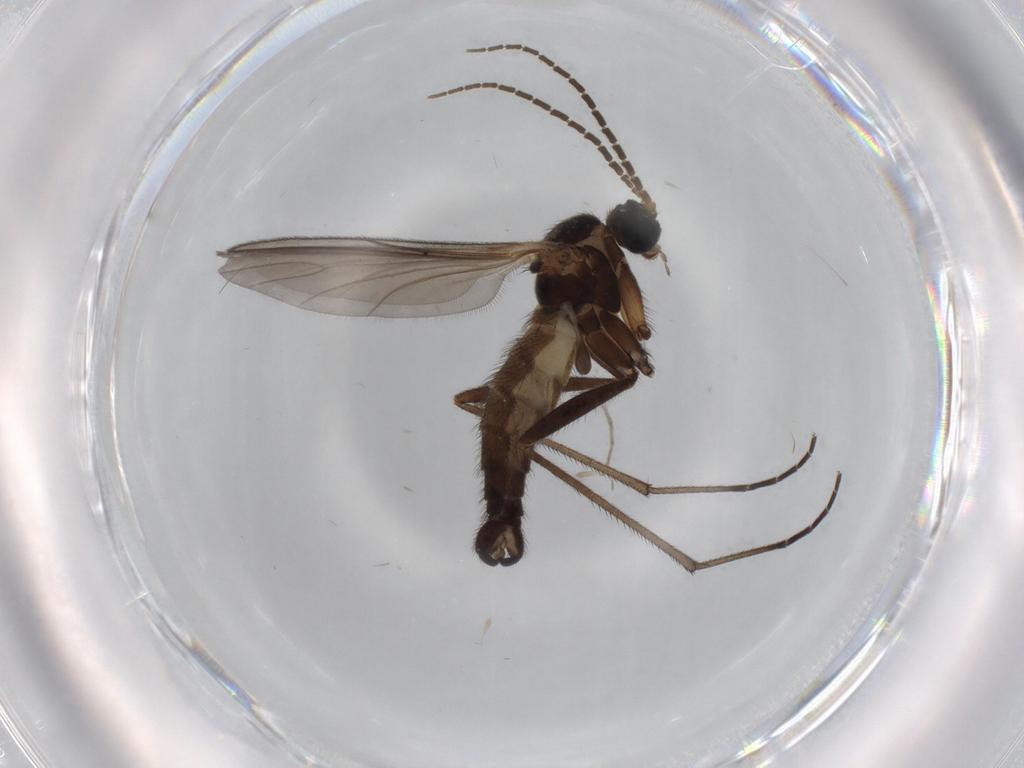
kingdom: Animalia
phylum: Arthropoda
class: Insecta
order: Diptera
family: Sciaridae
